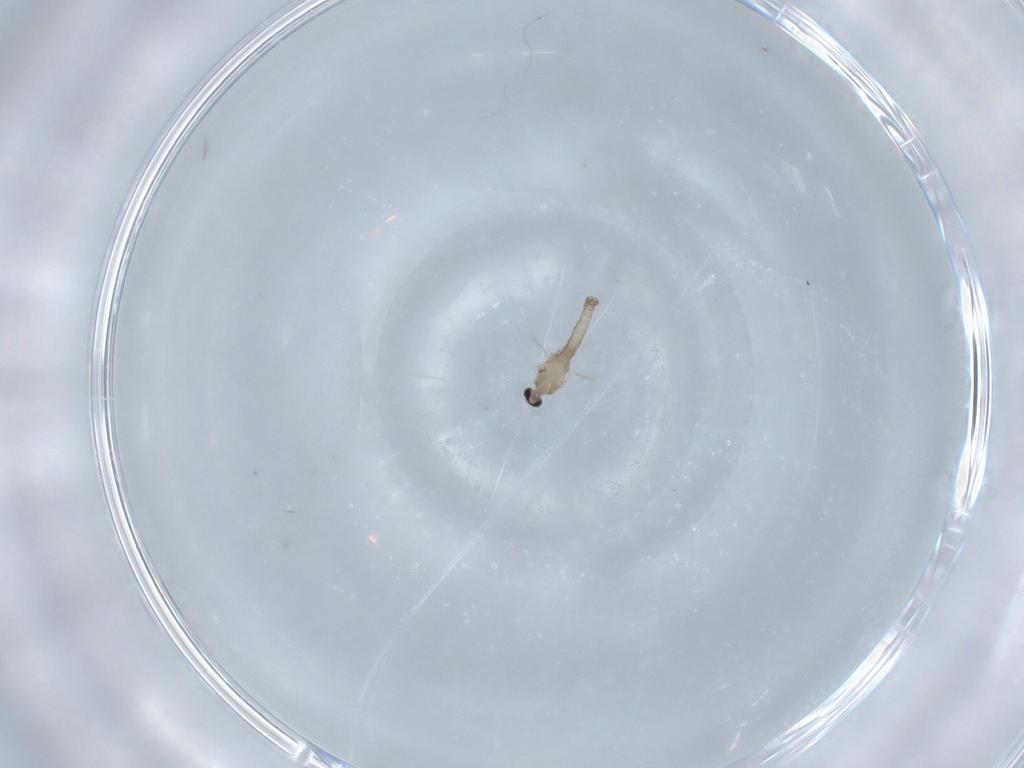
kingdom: Animalia
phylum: Arthropoda
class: Insecta
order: Diptera
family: Cecidomyiidae
